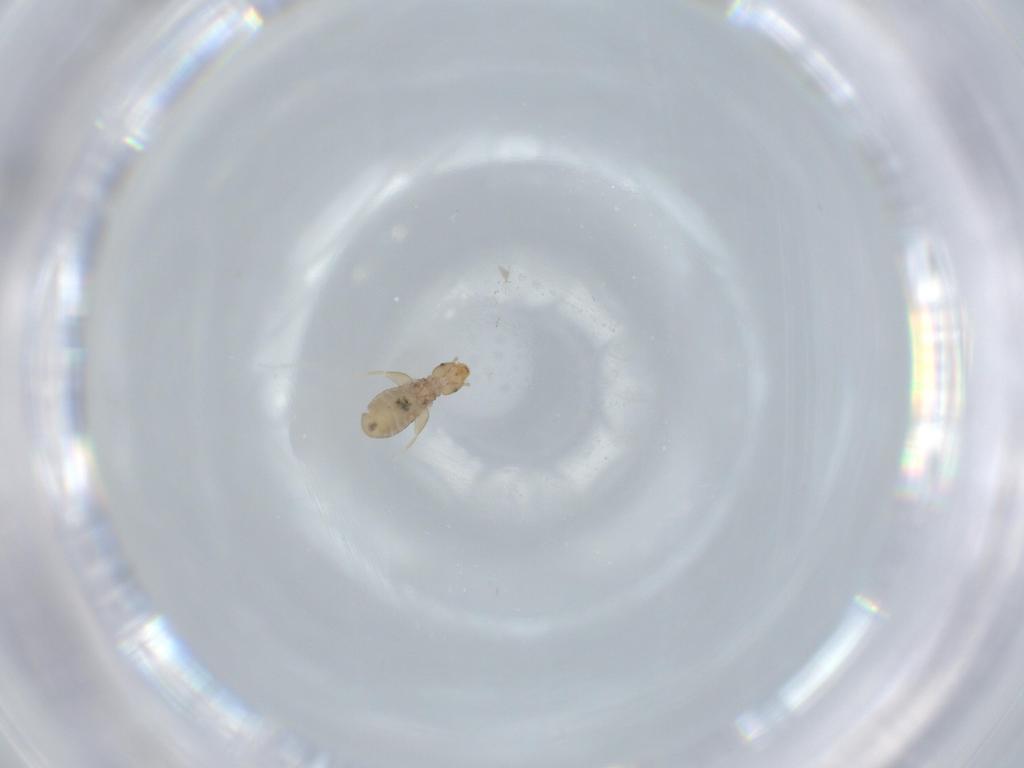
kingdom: Animalia
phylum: Arthropoda
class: Insecta
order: Psocodea
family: Liposcelididae
